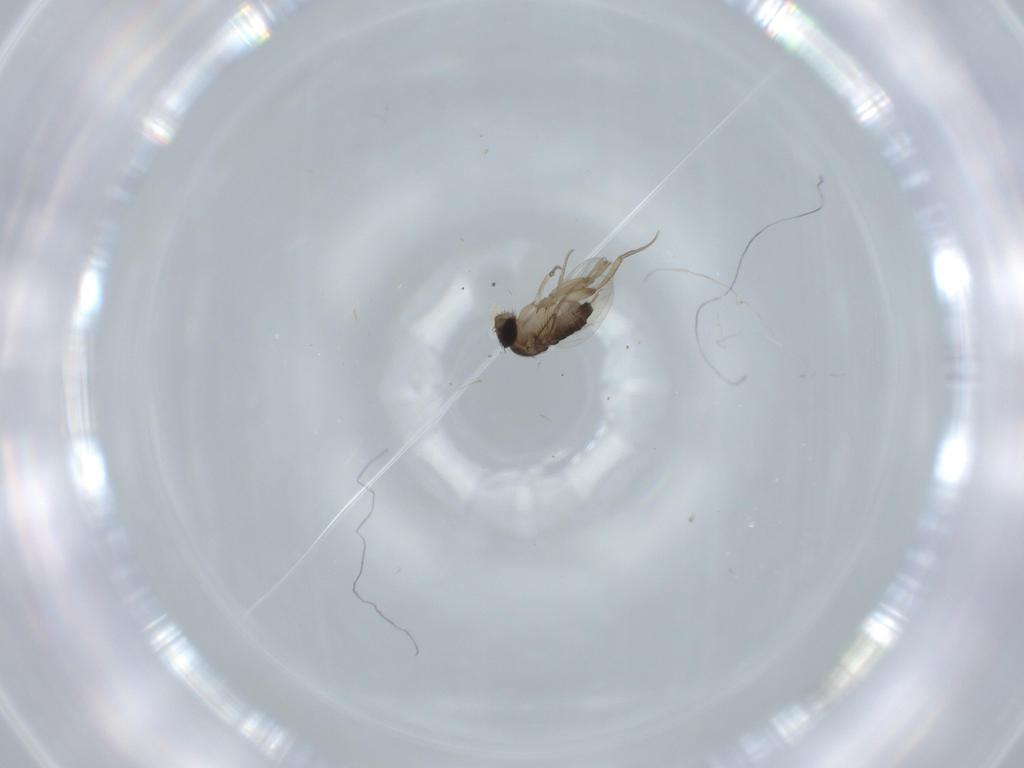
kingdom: Animalia
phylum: Arthropoda
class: Insecta
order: Diptera
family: Phoridae
